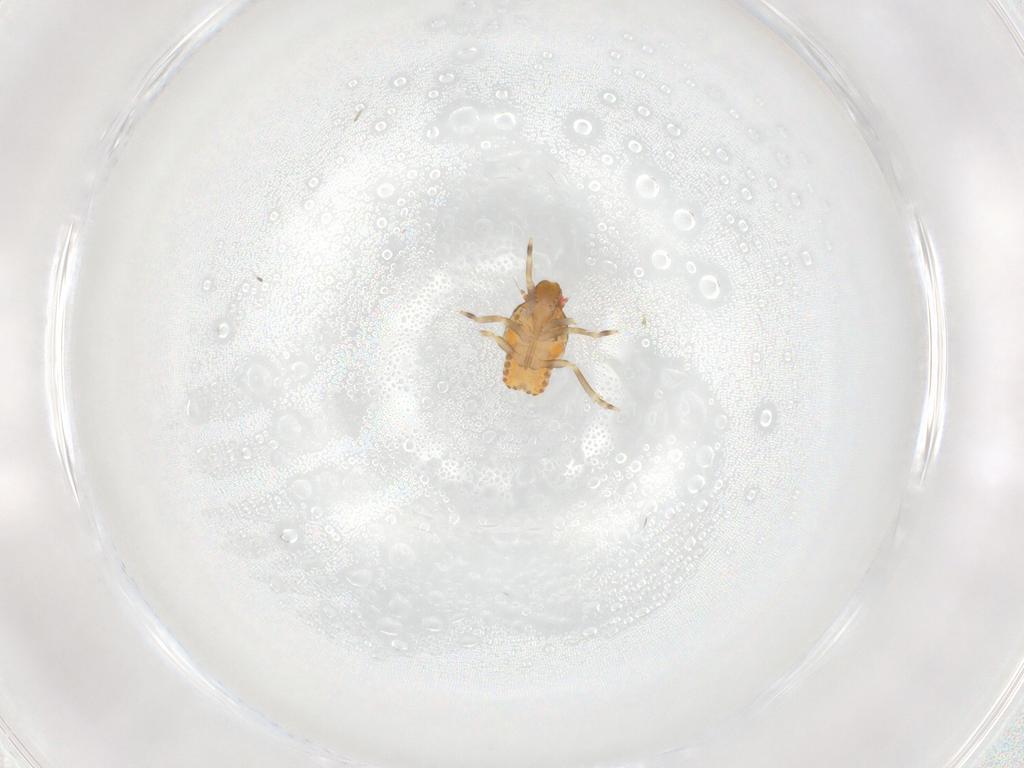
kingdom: Animalia
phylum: Arthropoda
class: Insecta
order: Hemiptera
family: Flatidae
